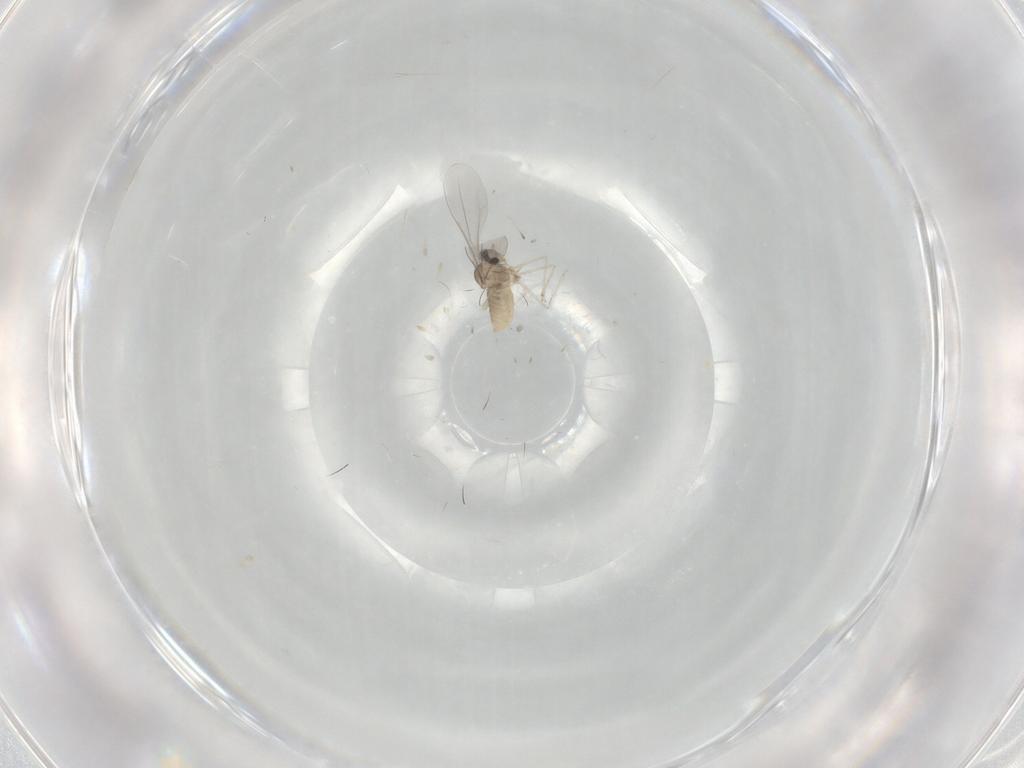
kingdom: Animalia
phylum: Arthropoda
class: Insecta
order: Diptera
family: Cecidomyiidae
